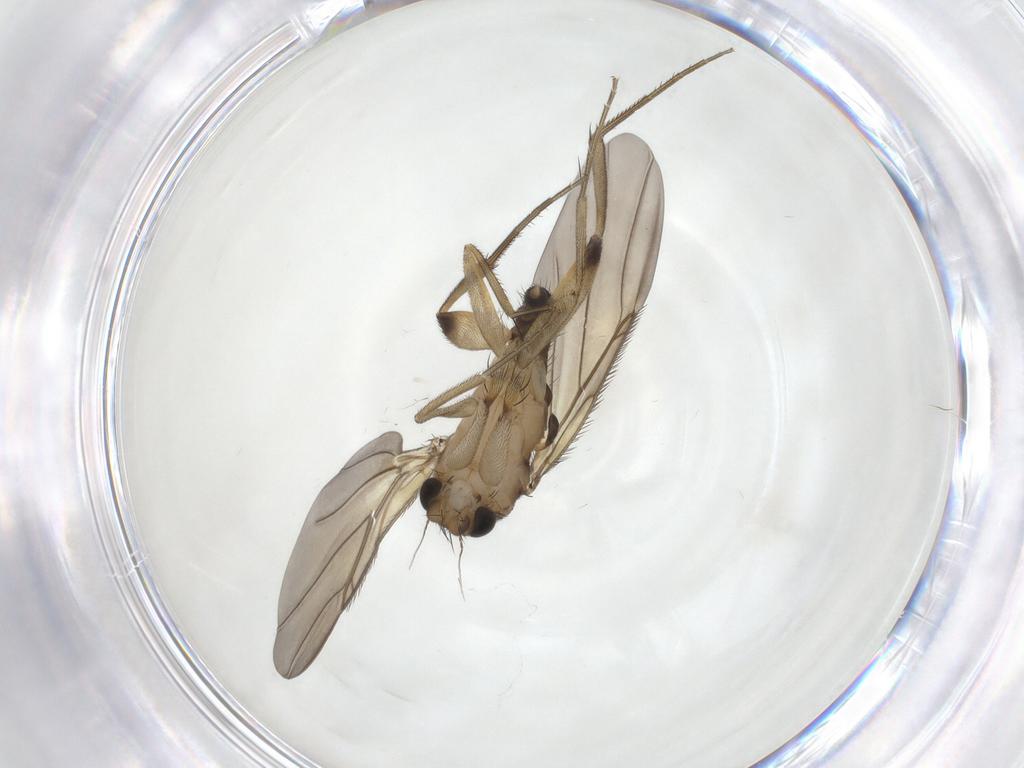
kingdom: Animalia
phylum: Arthropoda
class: Insecta
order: Diptera
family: Phoridae
